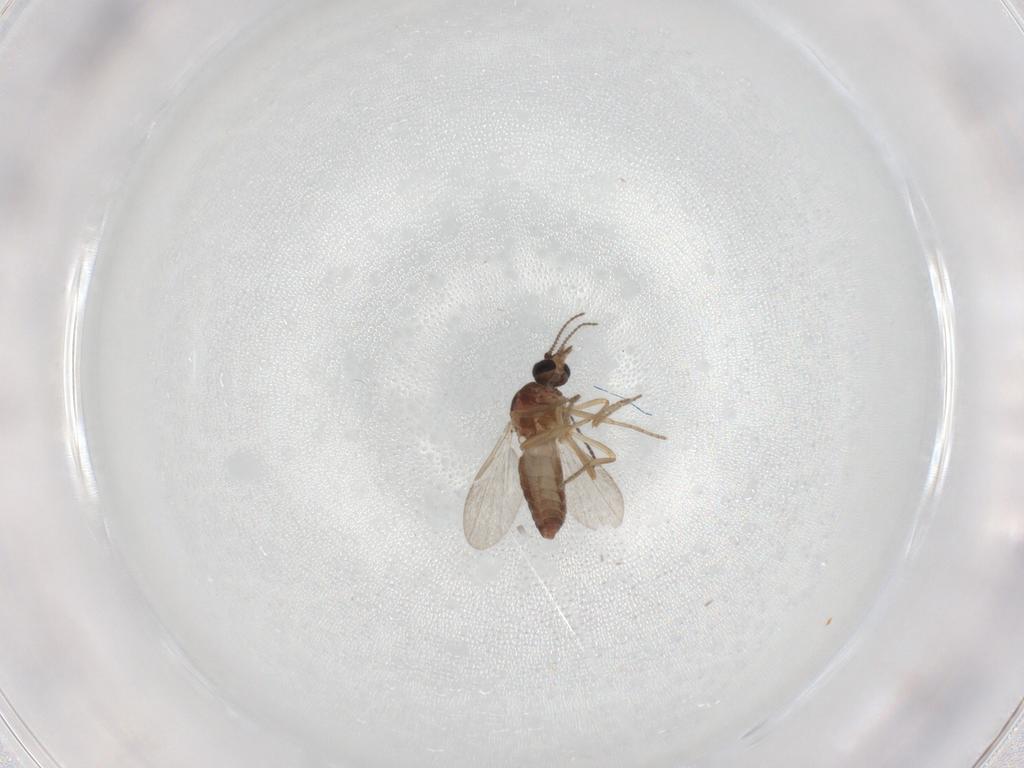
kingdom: Animalia
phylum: Arthropoda
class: Insecta
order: Diptera
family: Ceratopogonidae
